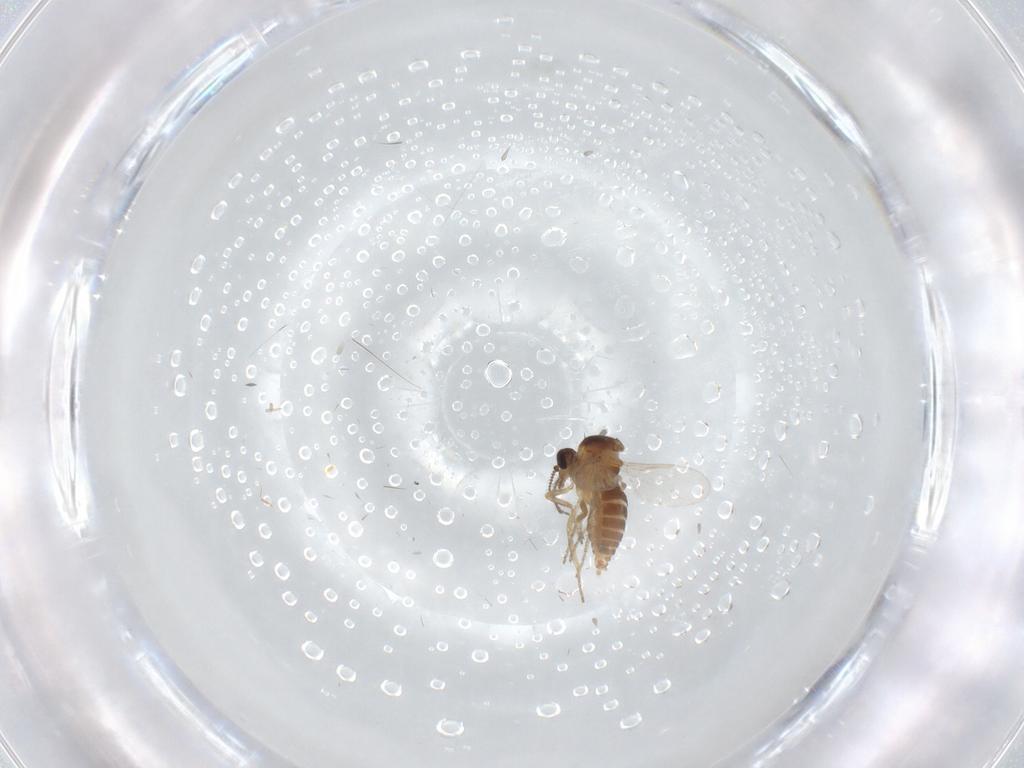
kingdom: Animalia
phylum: Arthropoda
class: Insecta
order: Diptera
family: Ceratopogonidae
